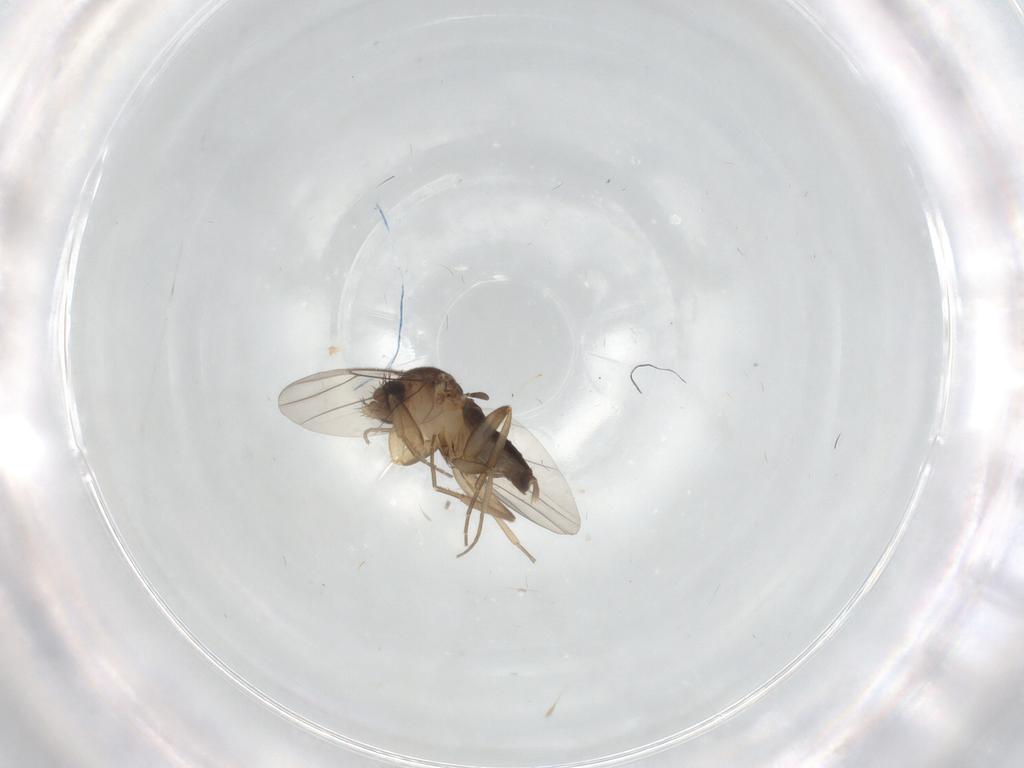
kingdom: Animalia
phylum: Arthropoda
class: Insecta
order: Diptera
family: Phoridae
